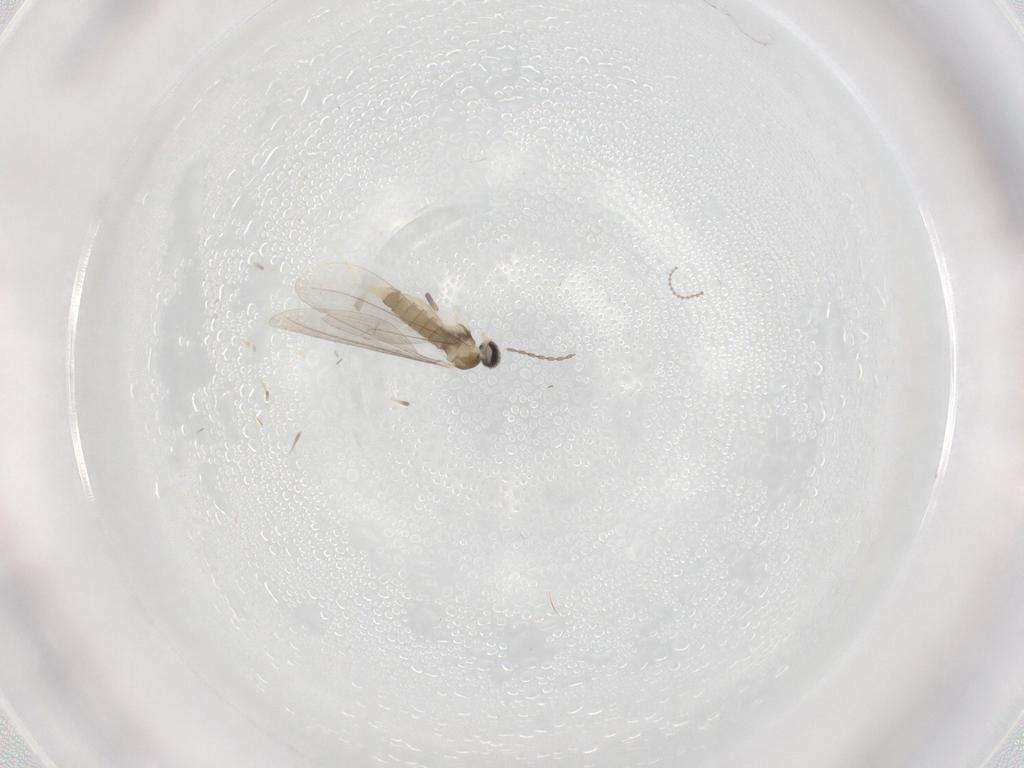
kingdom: Animalia
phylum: Arthropoda
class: Insecta
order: Diptera
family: Cecidomyiidae
